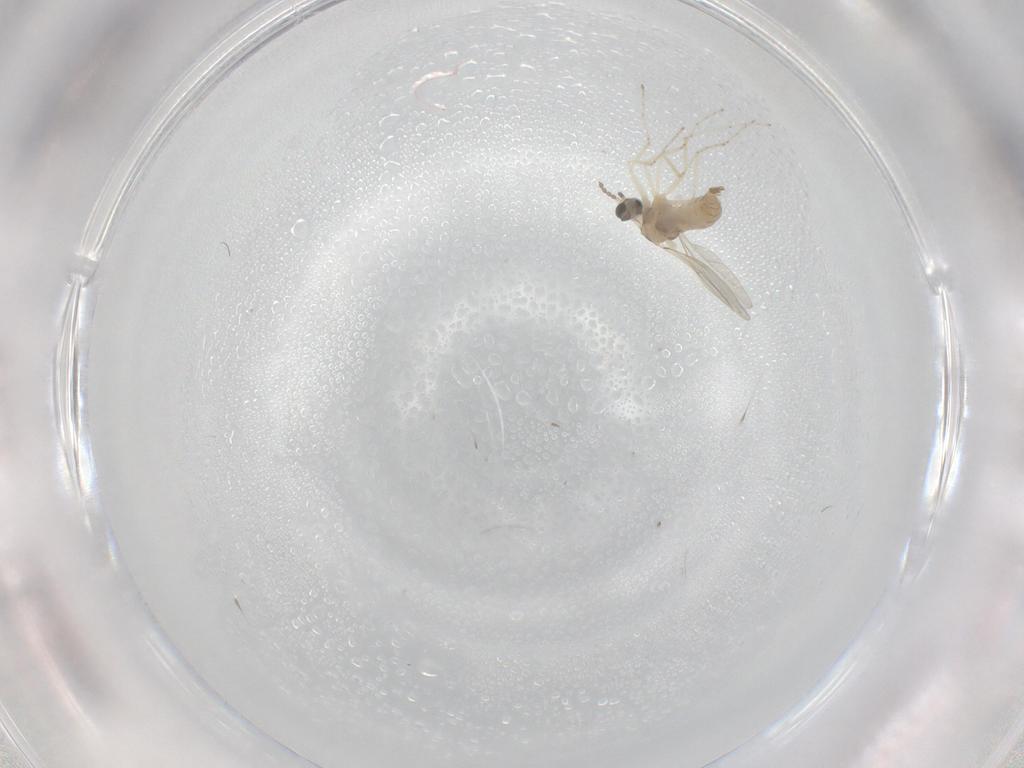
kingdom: Animalia
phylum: Arthropoda
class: Insecta
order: Diptera
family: Cecidomyiidae
